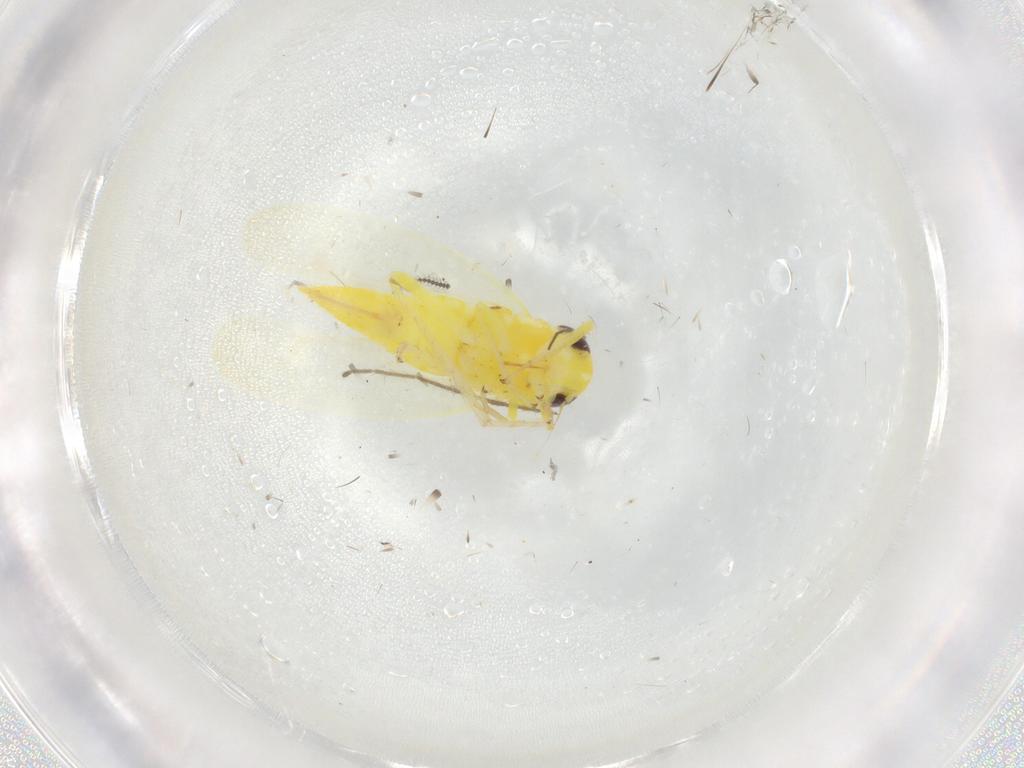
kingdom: Animalia
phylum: Arthropoda
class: Insecta
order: Hemiptera
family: Cicadellidae
